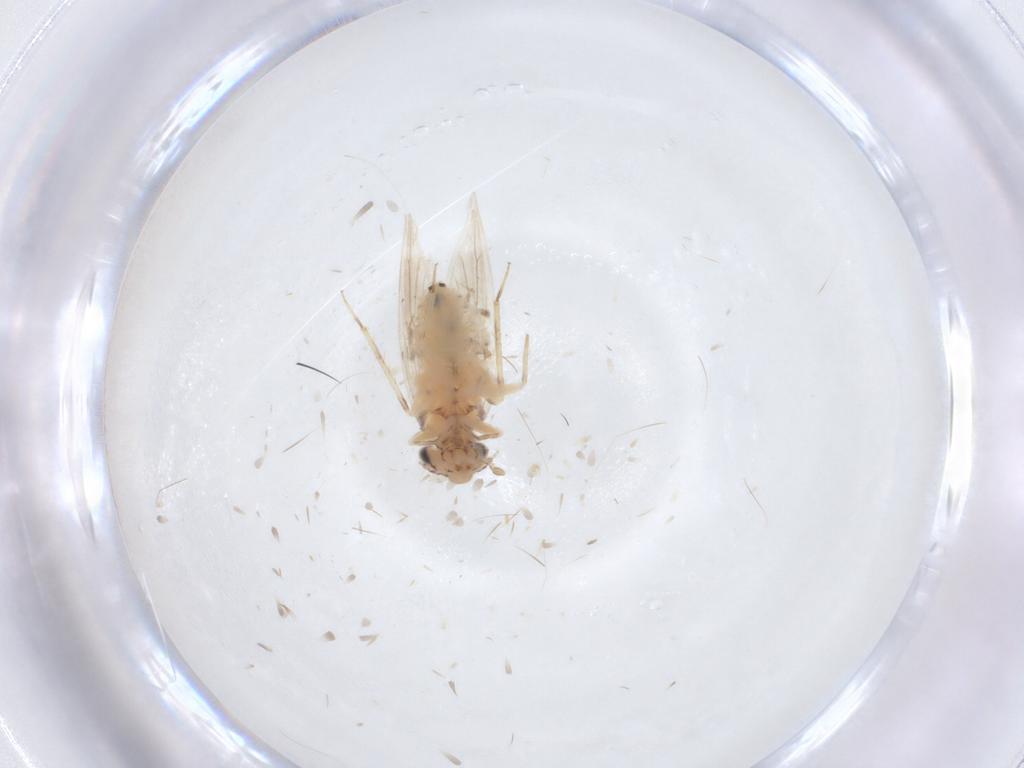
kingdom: Animalia
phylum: Arthropoda
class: Insecta
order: Psocodea
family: Lepidopsocidae
